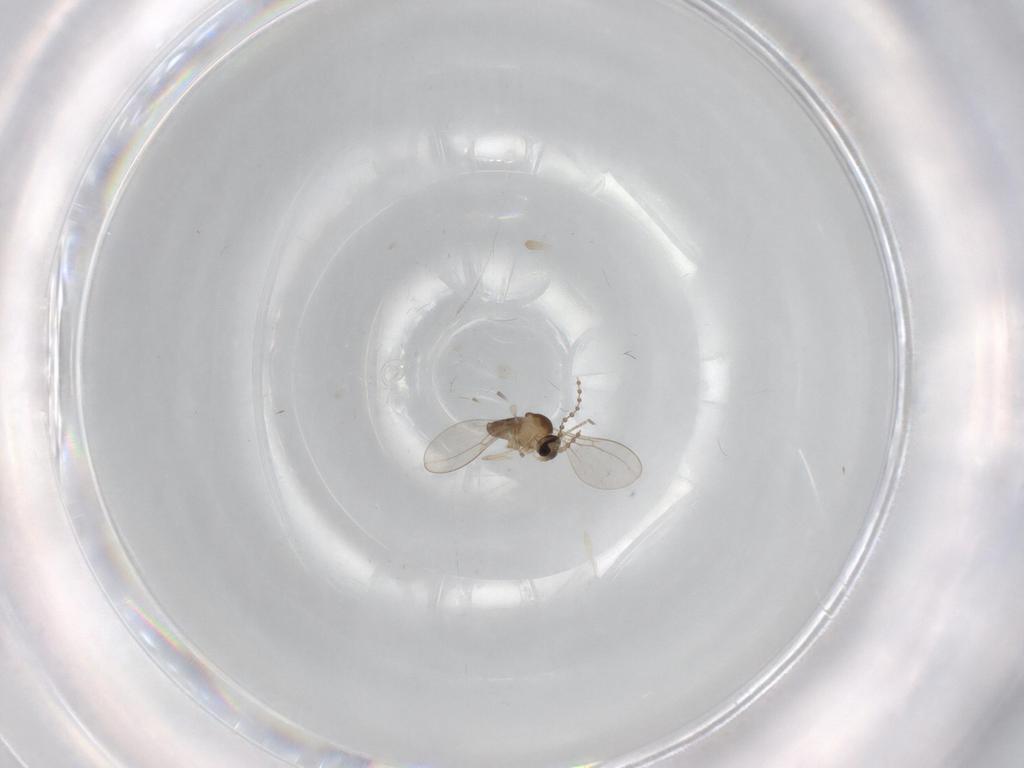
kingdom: Animalia
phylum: Arthropoda
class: Insecta
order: Diptera
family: Cecidomyiidae
